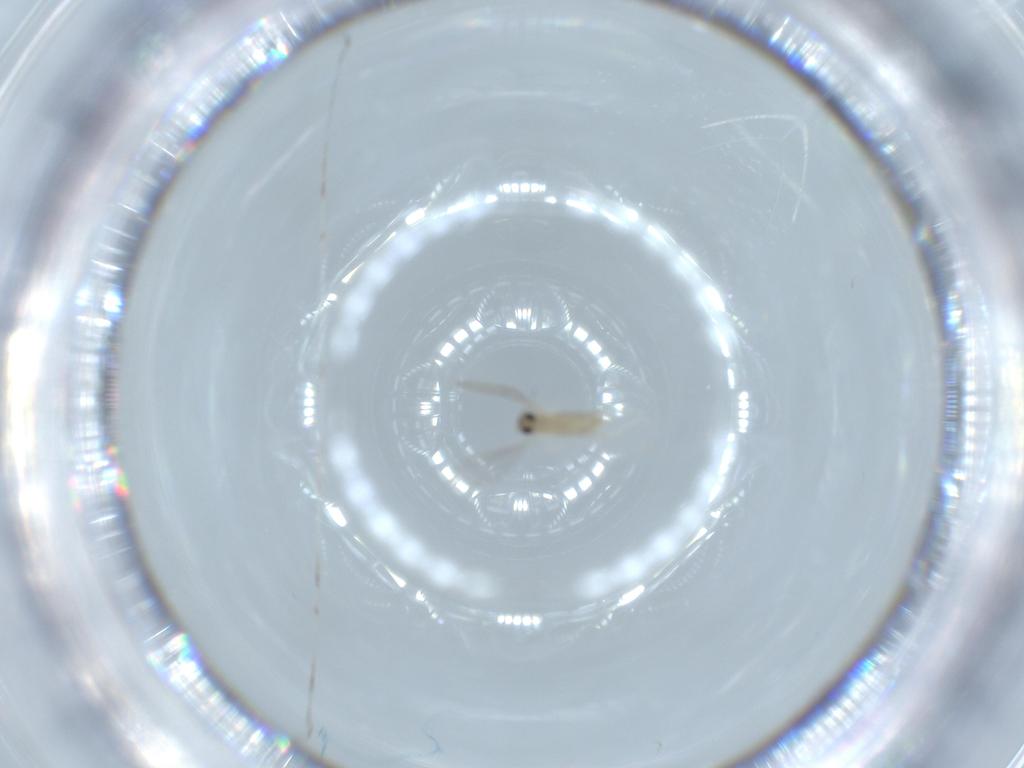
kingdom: Animalia
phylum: Arthropoda
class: Insecta
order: Diptera
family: Cecidomyiidae
